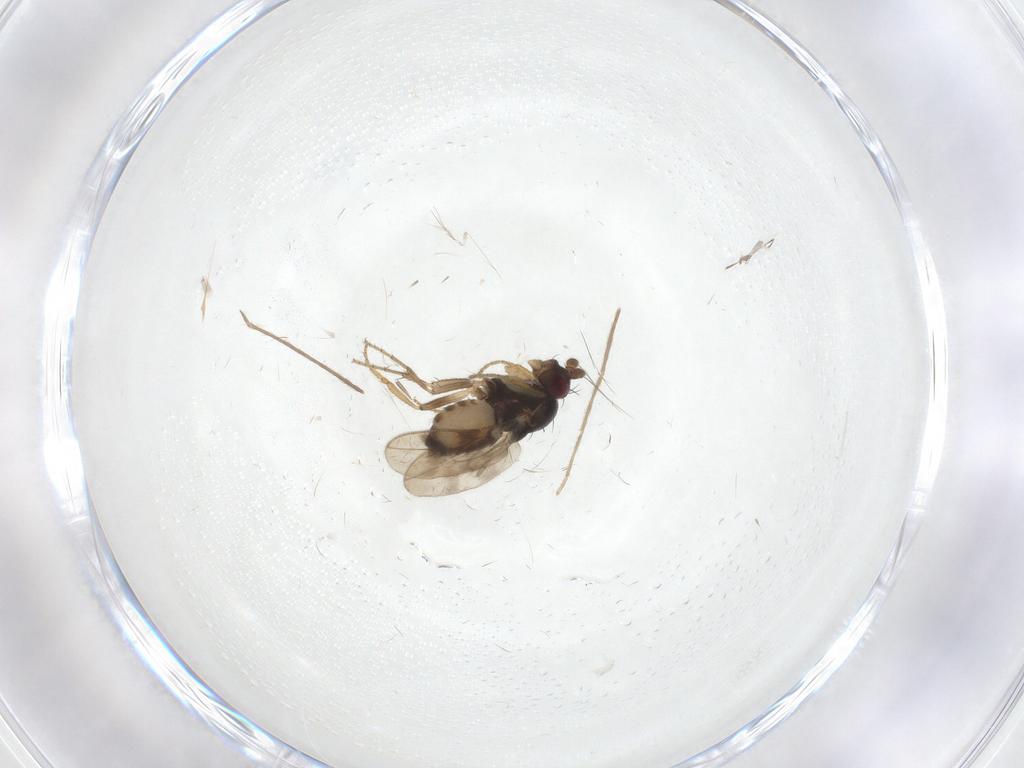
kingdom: Animalia
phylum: Arthropoda
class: Insecta
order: Diptera
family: Sphaeroceridae
